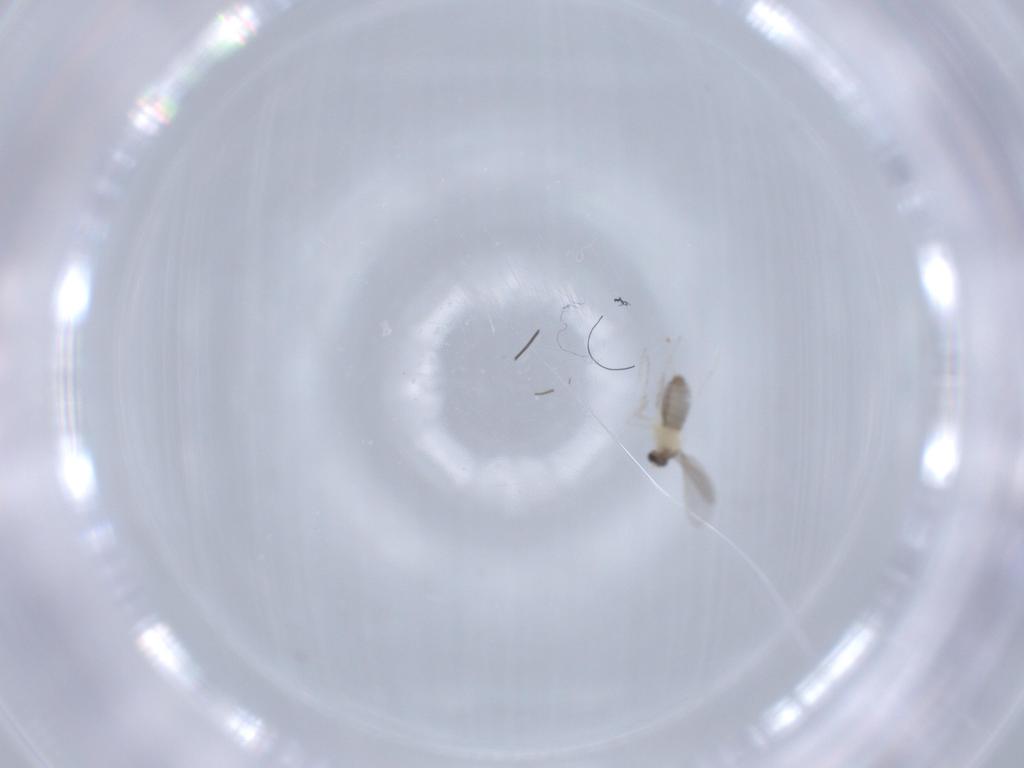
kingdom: Animalia
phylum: Arthropoda
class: Insecta
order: Diptera
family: Cecidomyiidae
